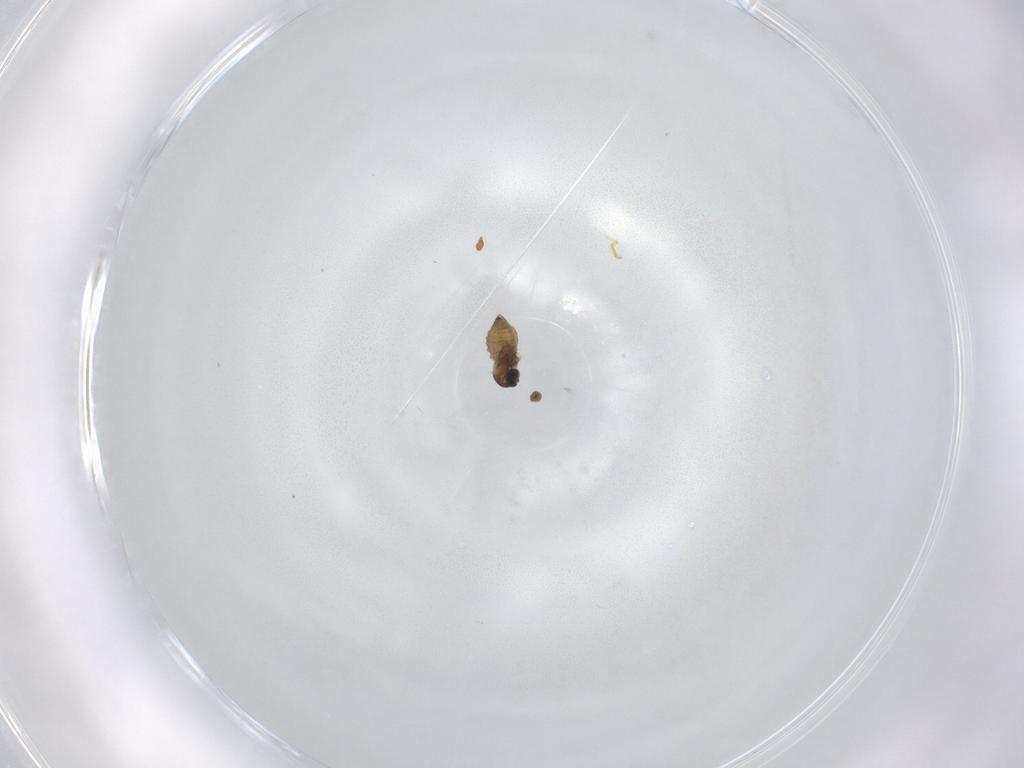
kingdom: Animalia
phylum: Arthropoda
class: Insecta
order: Diptera
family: Cecidomyiidae
